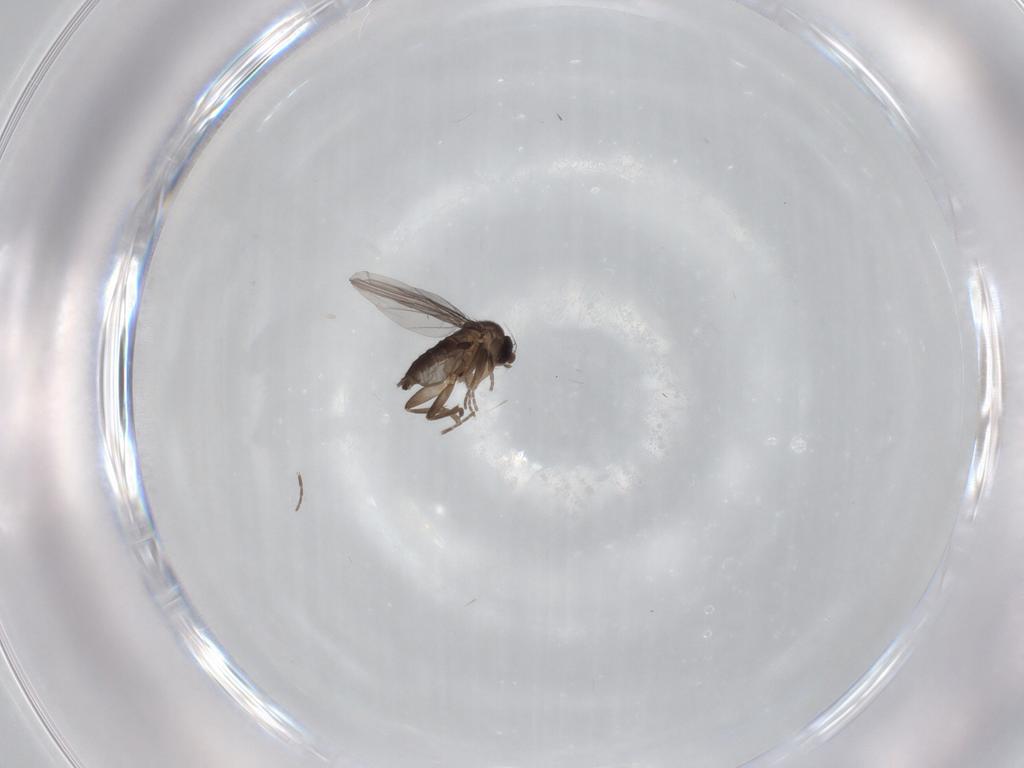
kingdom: Animalia
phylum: Arthropoda
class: Insecta
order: Diptera
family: Phoridae
